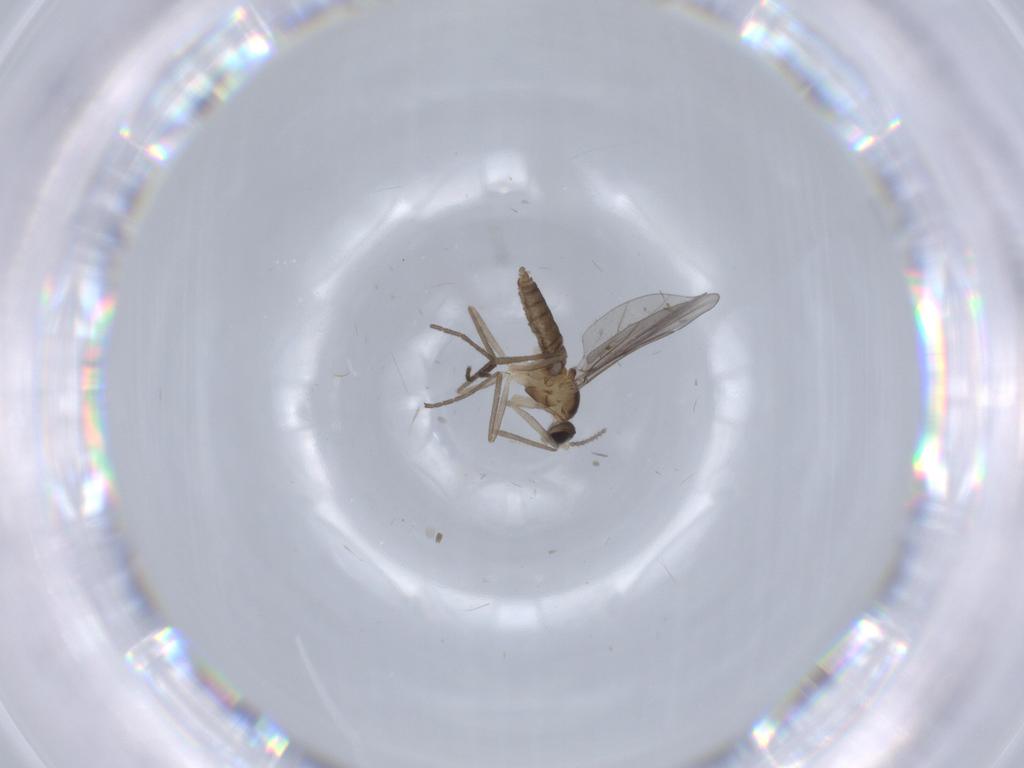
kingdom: Animalia
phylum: Arthropoda
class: Insecta
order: Diptera
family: Cecidomyiidae
